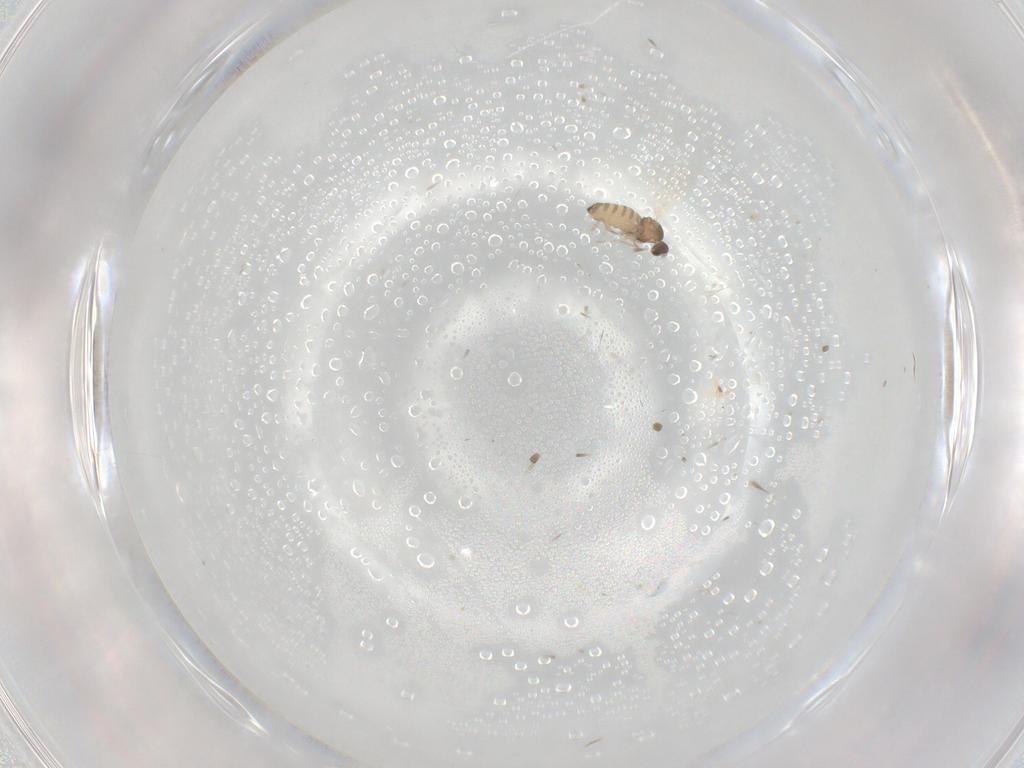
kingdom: Animalia
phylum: Arthropoda
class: Insecta
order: Diptera
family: Cecidomyiidae
